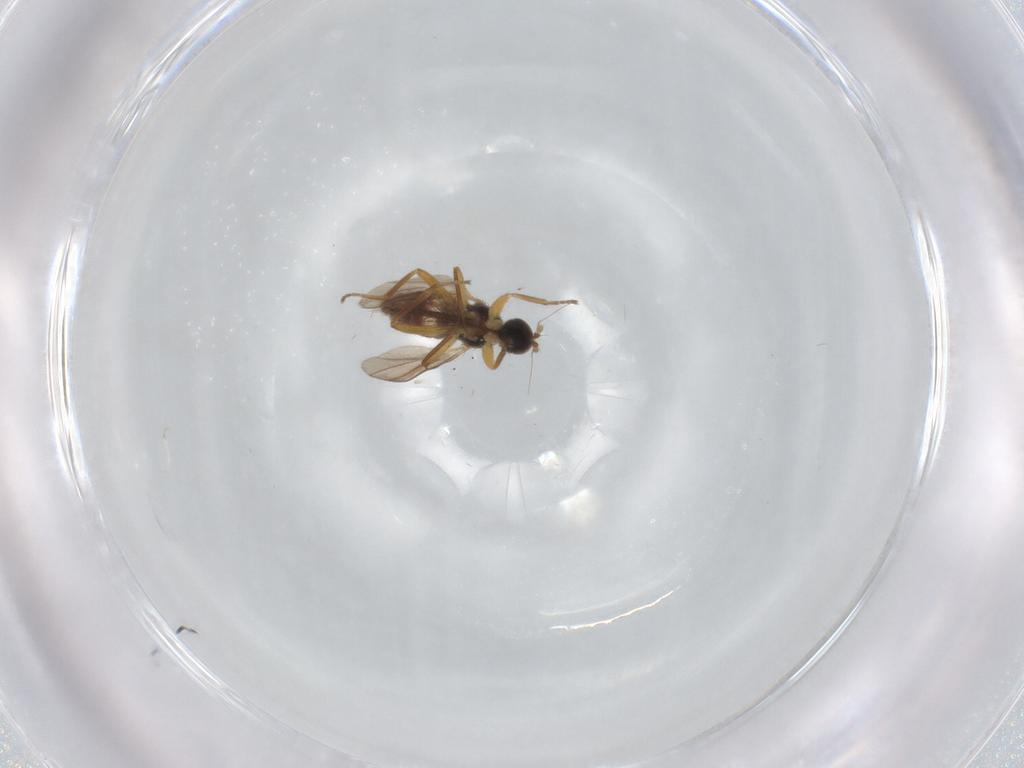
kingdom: Animalia
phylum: Arthropoda
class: Insecta
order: Diptera
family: Hybotidae
